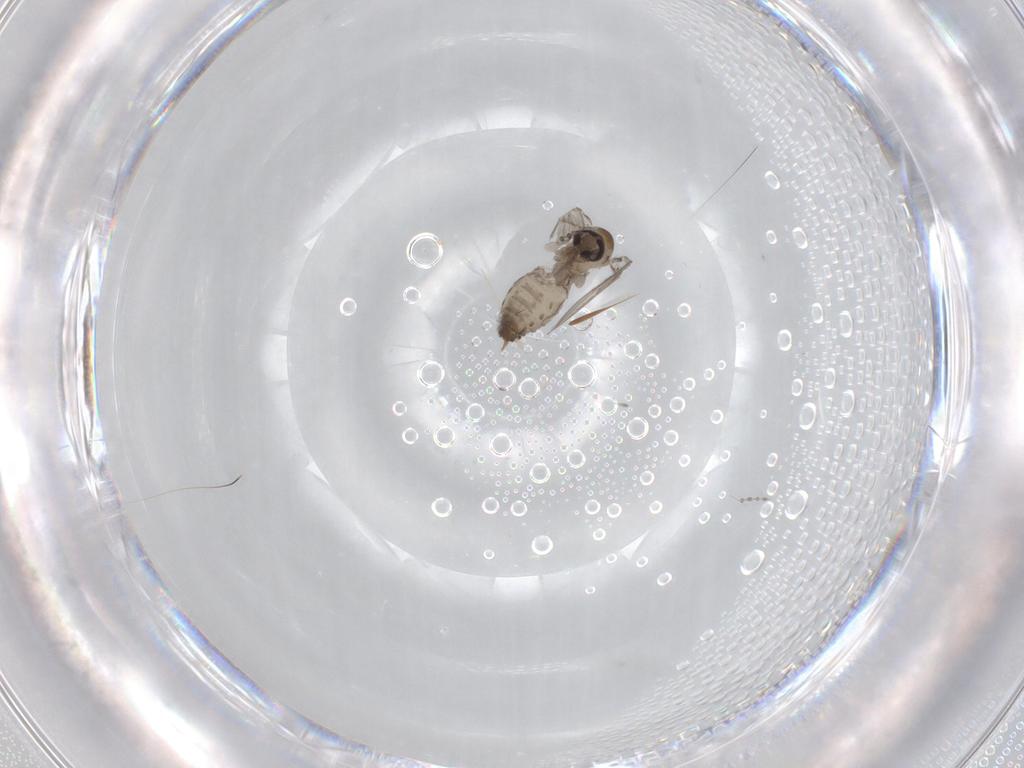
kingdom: Animalia
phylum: Arthropoda
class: Insecta
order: Diptera
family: Psychodidae
